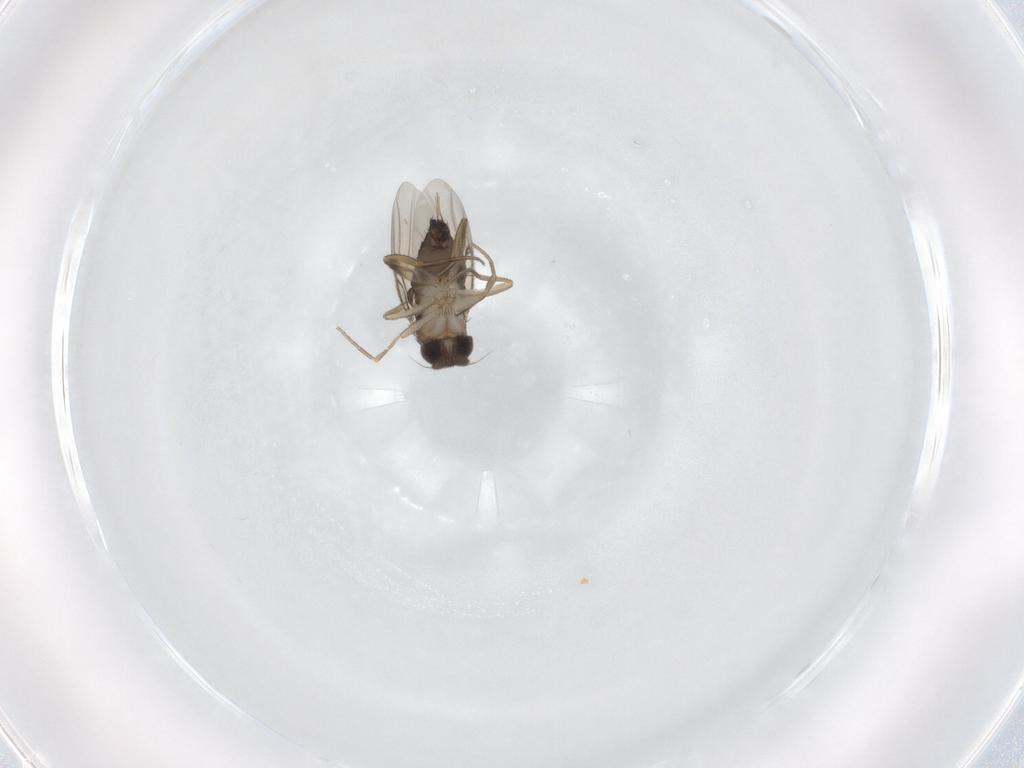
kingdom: Animalia
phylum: Arthropoda
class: Insecta
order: Diptera
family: Phoridae
